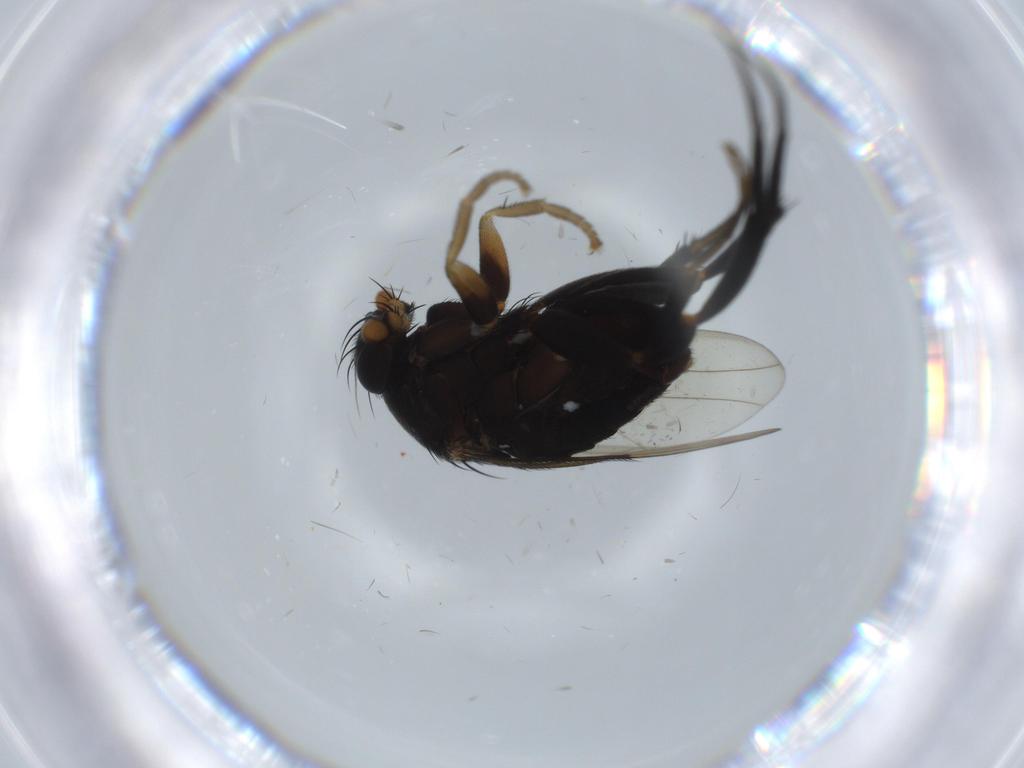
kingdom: Animalia
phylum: Arthropoda
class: Insecta
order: Diptera
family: Phoridae
